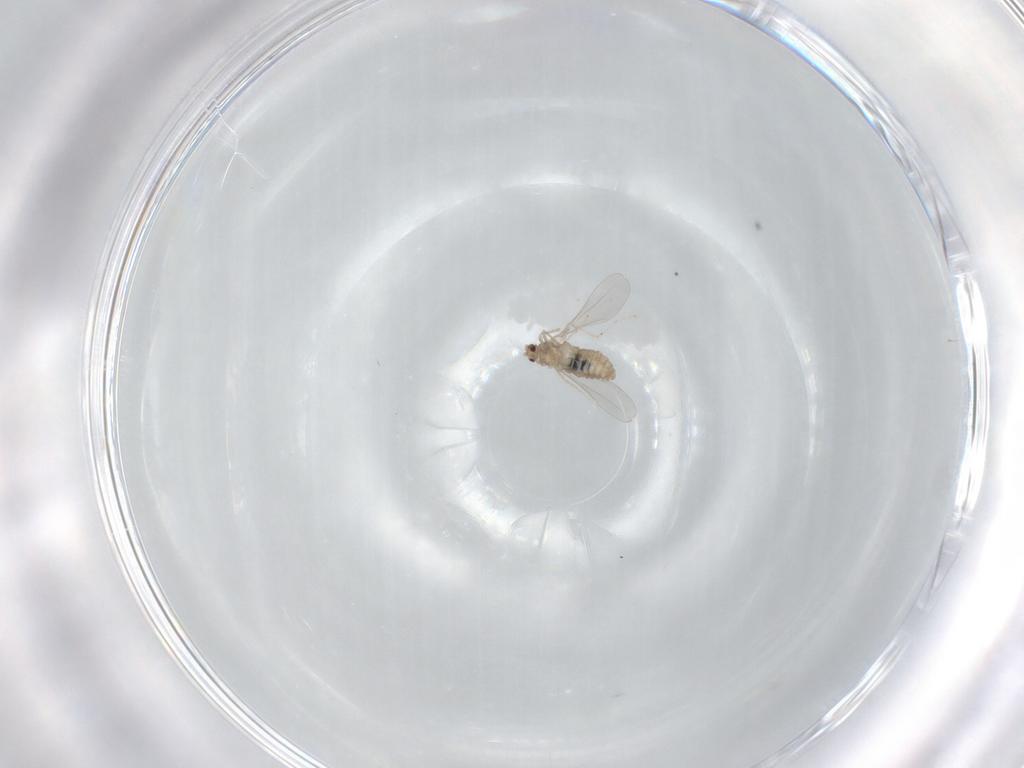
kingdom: Animalia
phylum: Arthropoda
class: Insecta
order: Diptera
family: Cecidomyiidae
